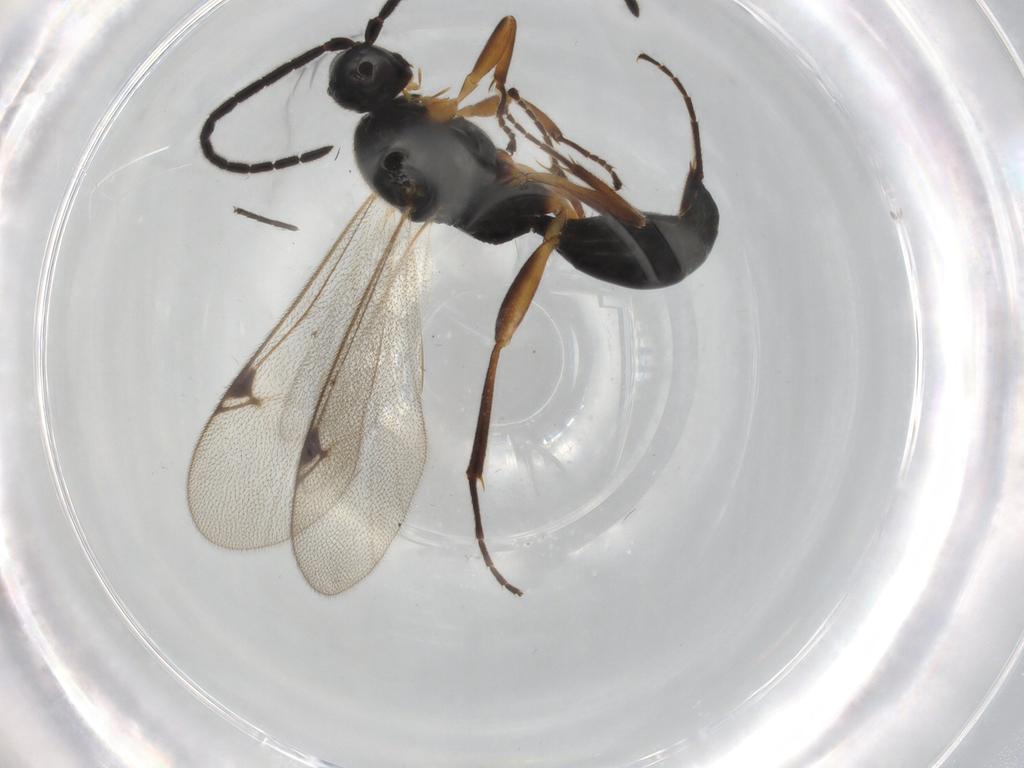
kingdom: Animalia
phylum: Arthropoda
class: Insecta
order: Hymenoptera
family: Proctotrupidae
